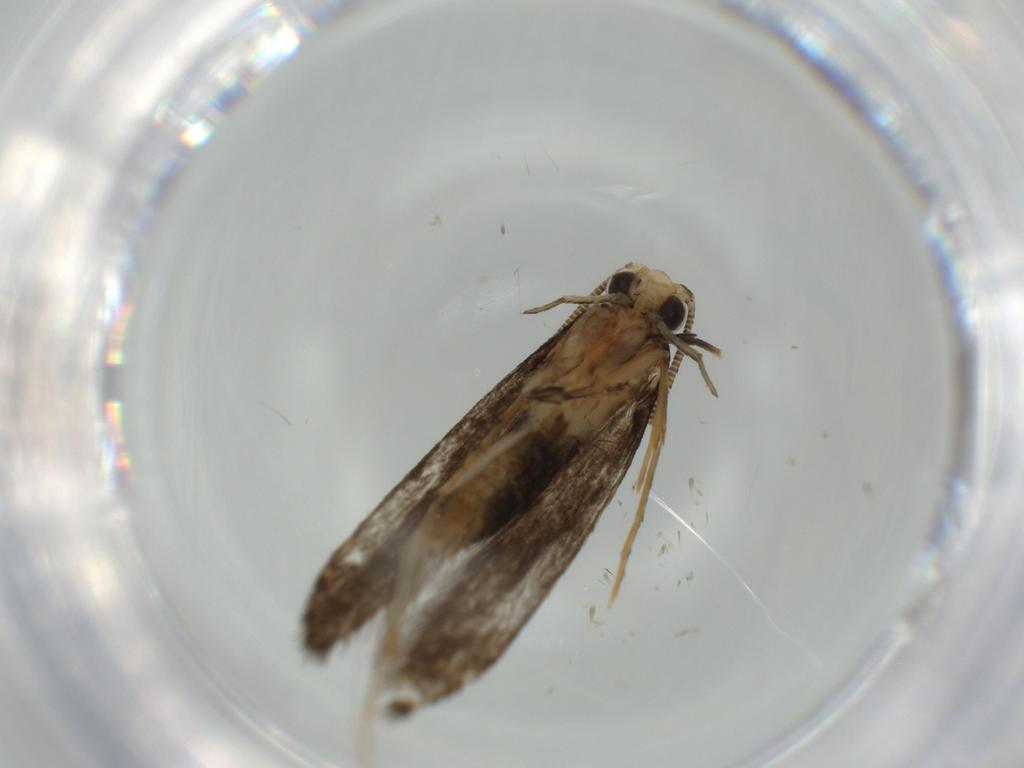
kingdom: Animalia
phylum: Arthropoda
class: Insecta
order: Lepidoptera
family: Tineidae
